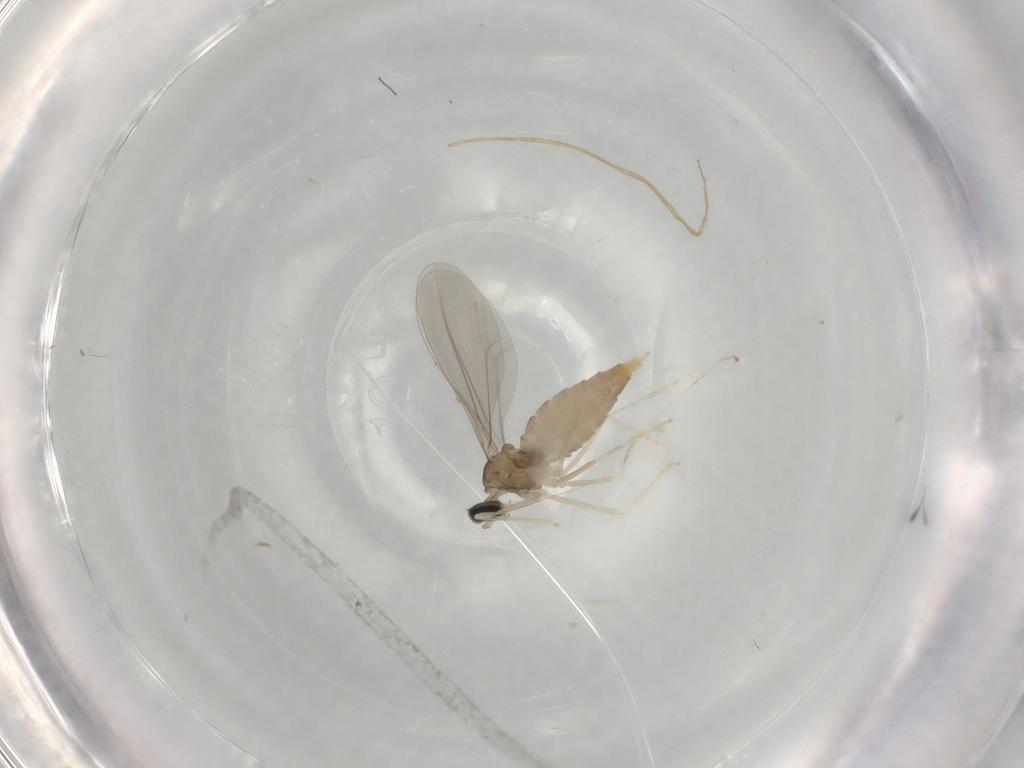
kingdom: Animalia
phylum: Arthropoda
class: Insecta
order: Diptera
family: Cecidomyiidae
